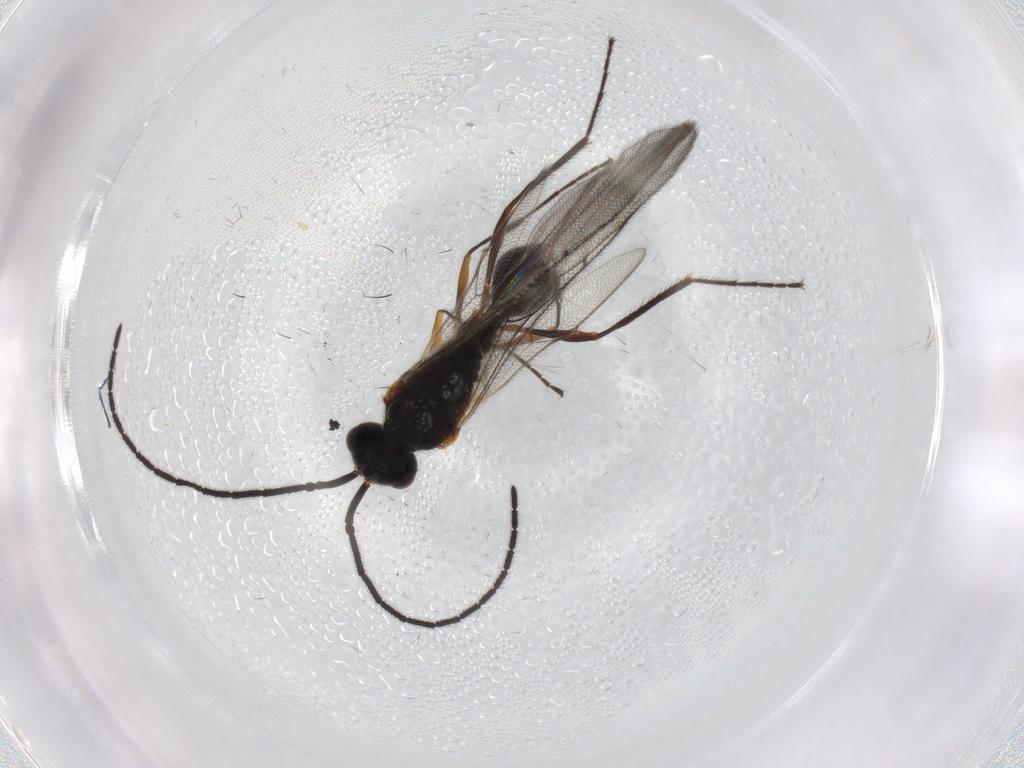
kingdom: Animalia
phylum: Arthropoda
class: Insecta
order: Hymenoptera
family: Diapriidae
